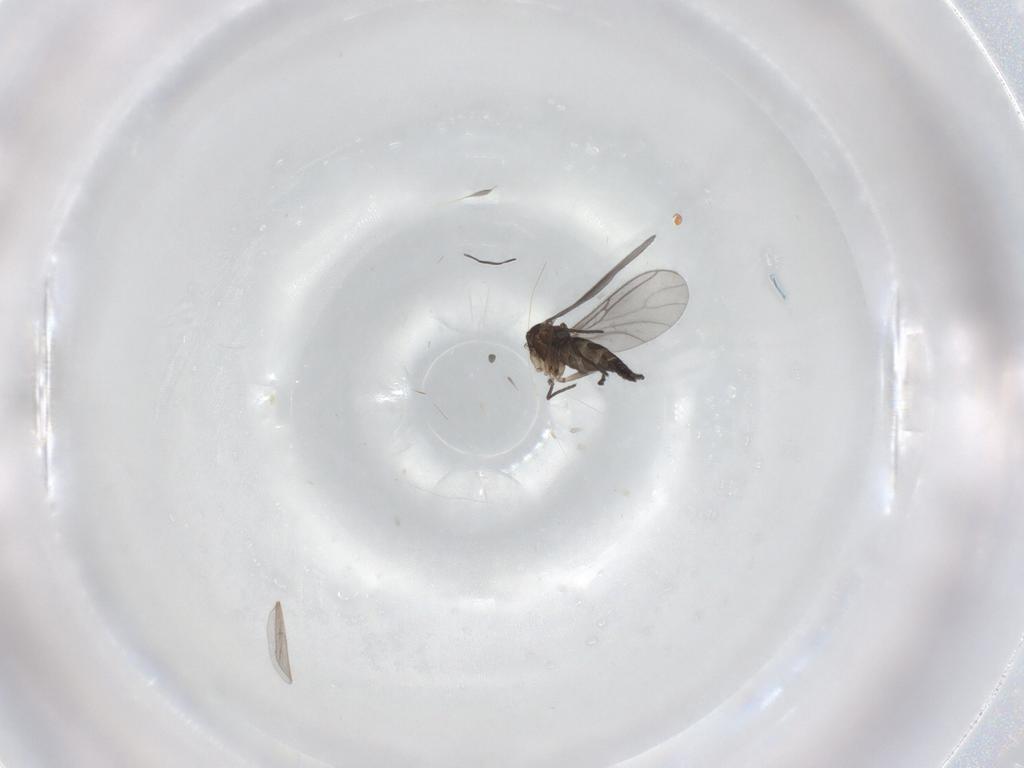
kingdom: Animalia
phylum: Arthropoda
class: Insecta
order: Diptera
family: Sciaridae
